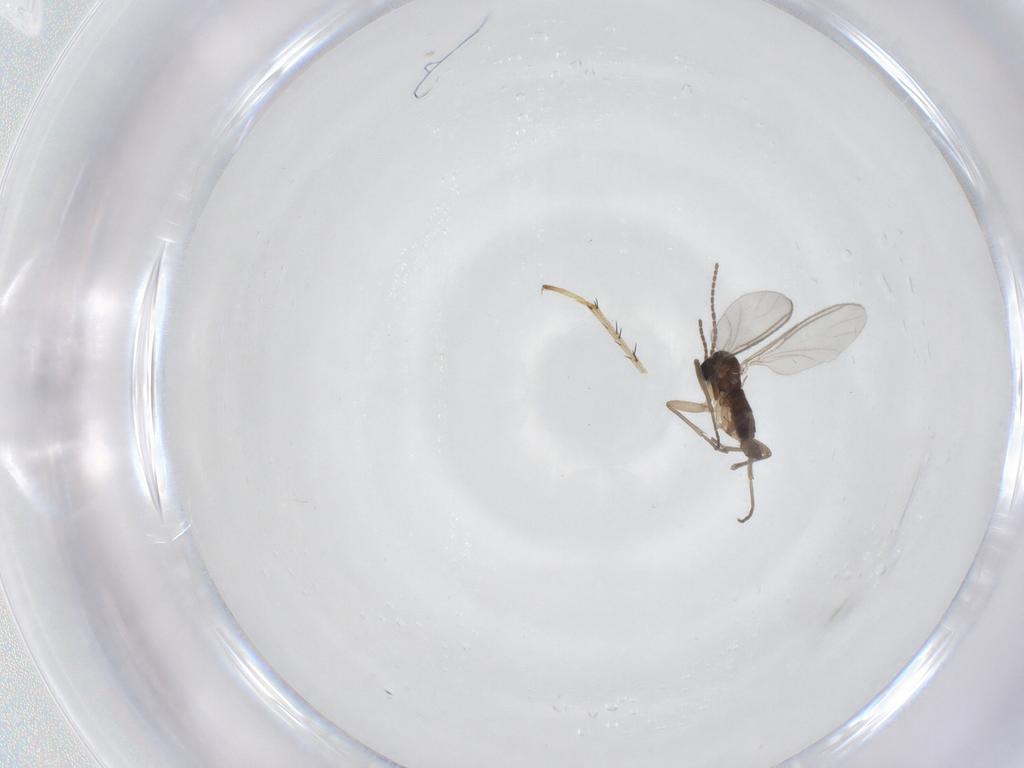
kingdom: Animalia
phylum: Arthropoda
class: Insecta
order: Diptera
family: Sciaridae
